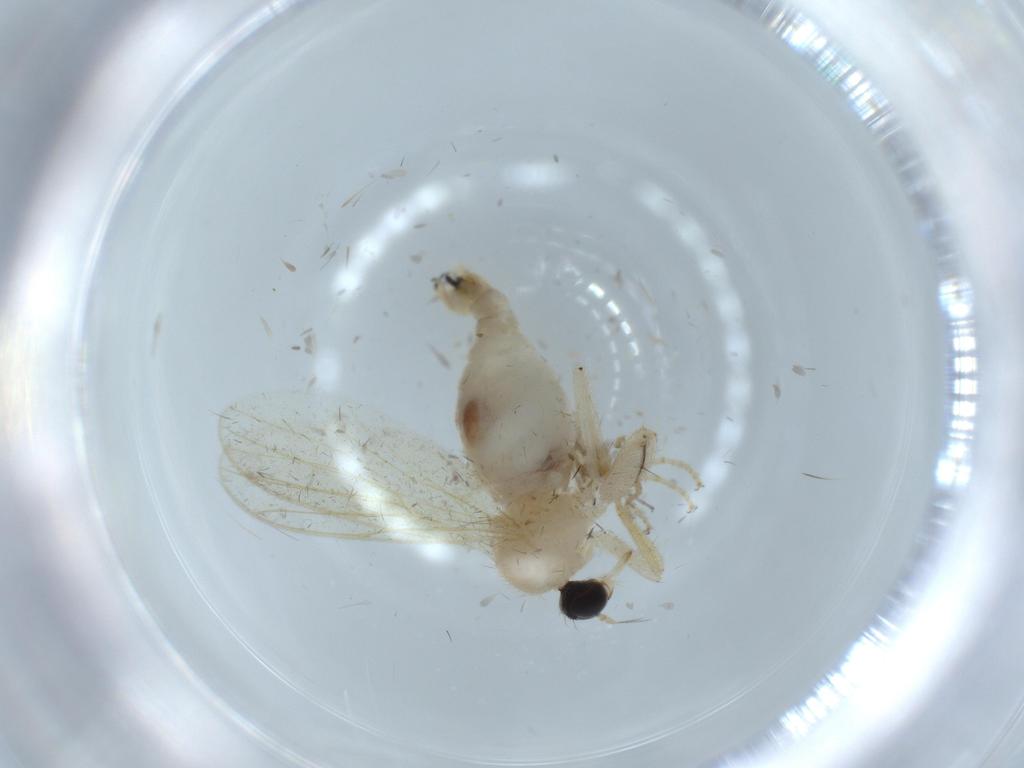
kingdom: Animalia
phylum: Arthropoda
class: Insecta
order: Diptera
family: Hybotidae
